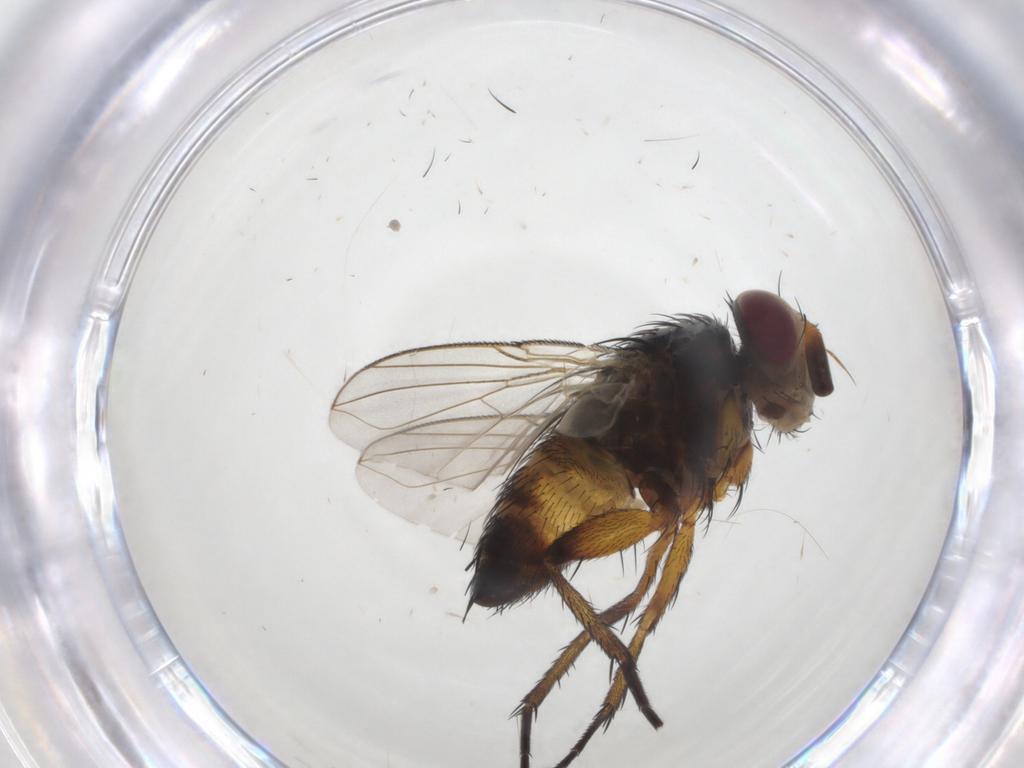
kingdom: Animalia
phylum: Arthropoda
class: Insecta
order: Diptera
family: Tachinidae
